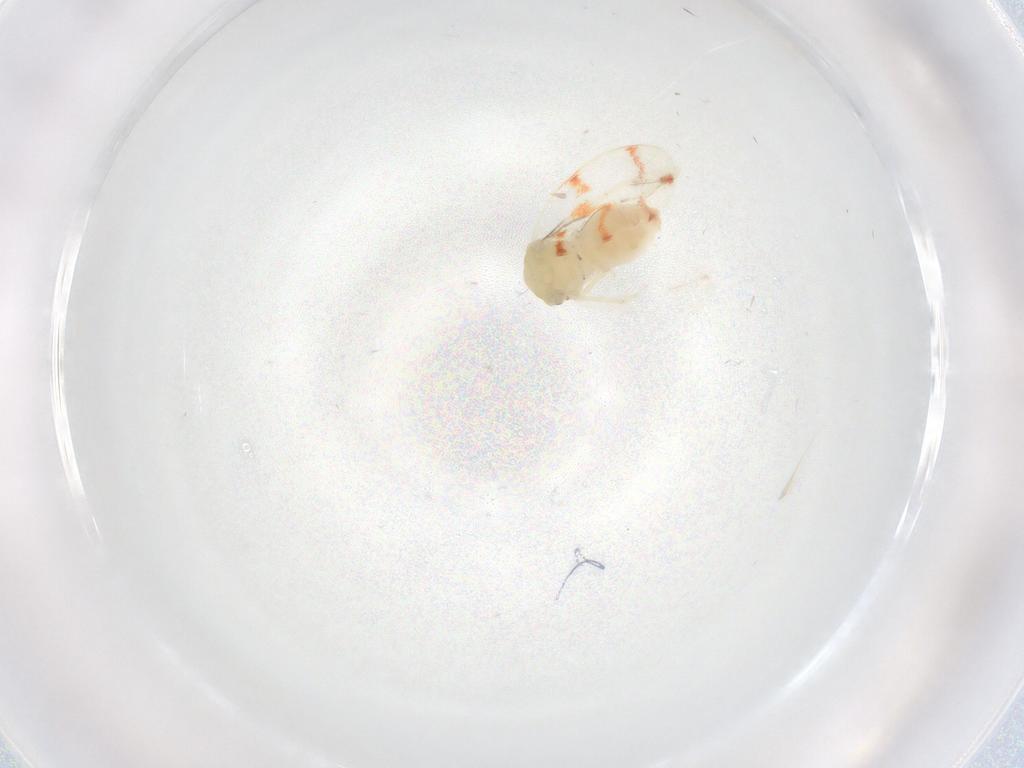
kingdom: Animalia
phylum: Arthropoda
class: Insecta
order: Hemiptera
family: Aleyrodidae
